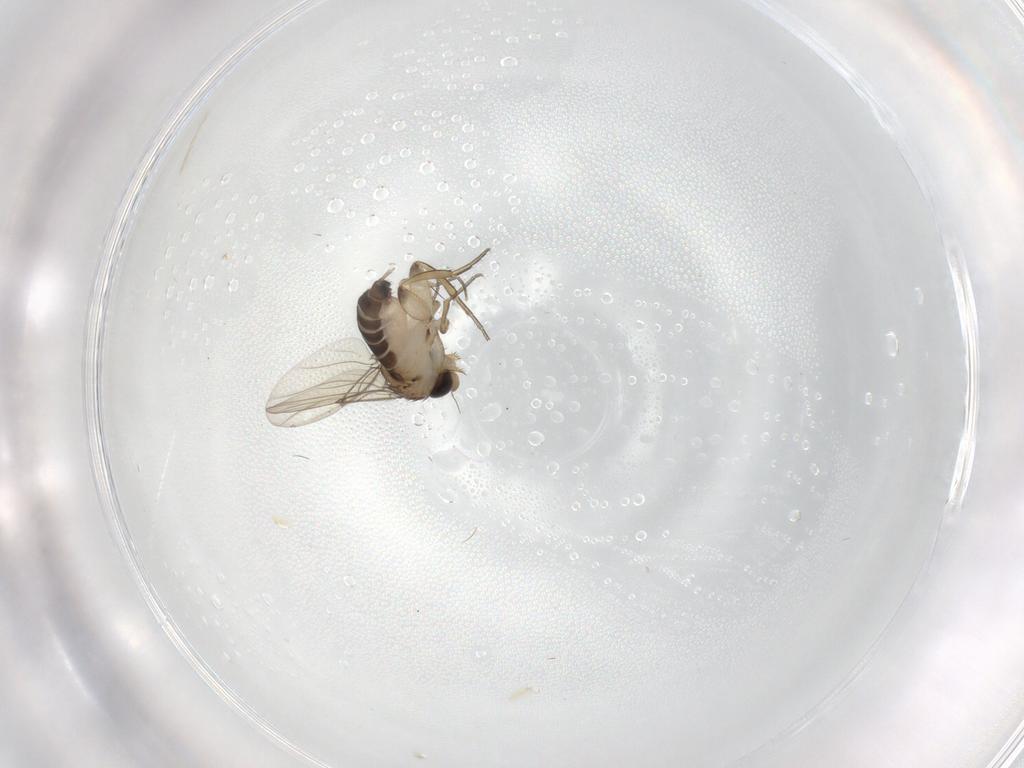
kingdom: Animalia
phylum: Arthropoda
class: Insecta
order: Diptera
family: Phoridae
